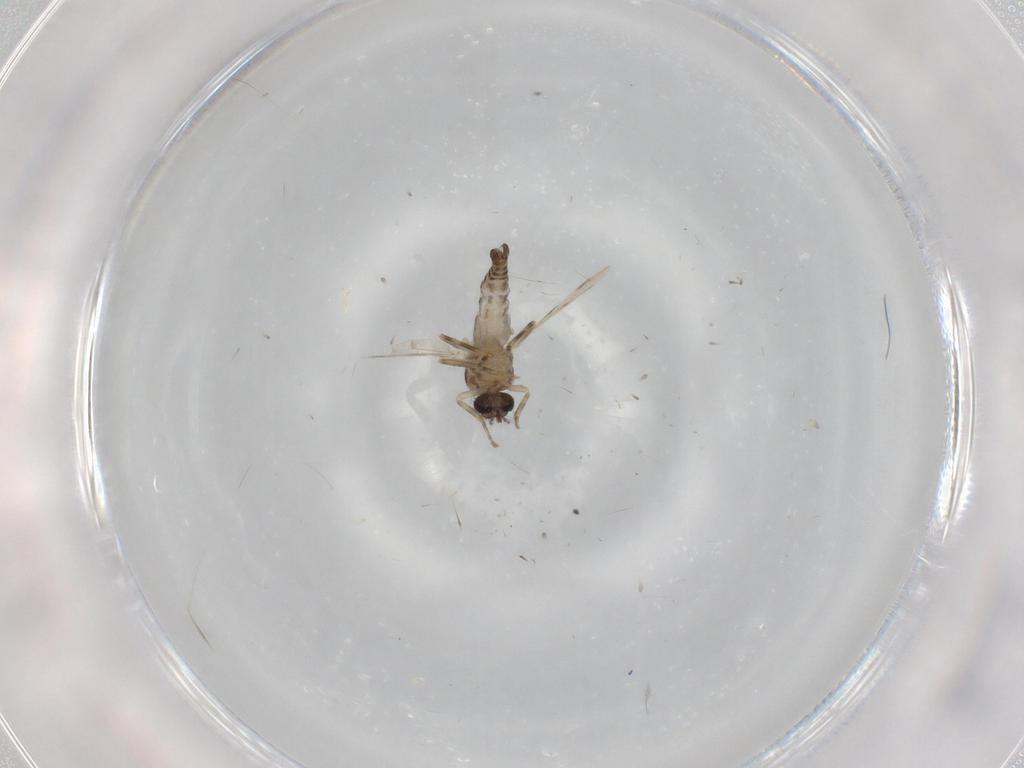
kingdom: Animalia
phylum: Arthropoda
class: Insecta
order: Diptera
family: Ceratopogonidae
